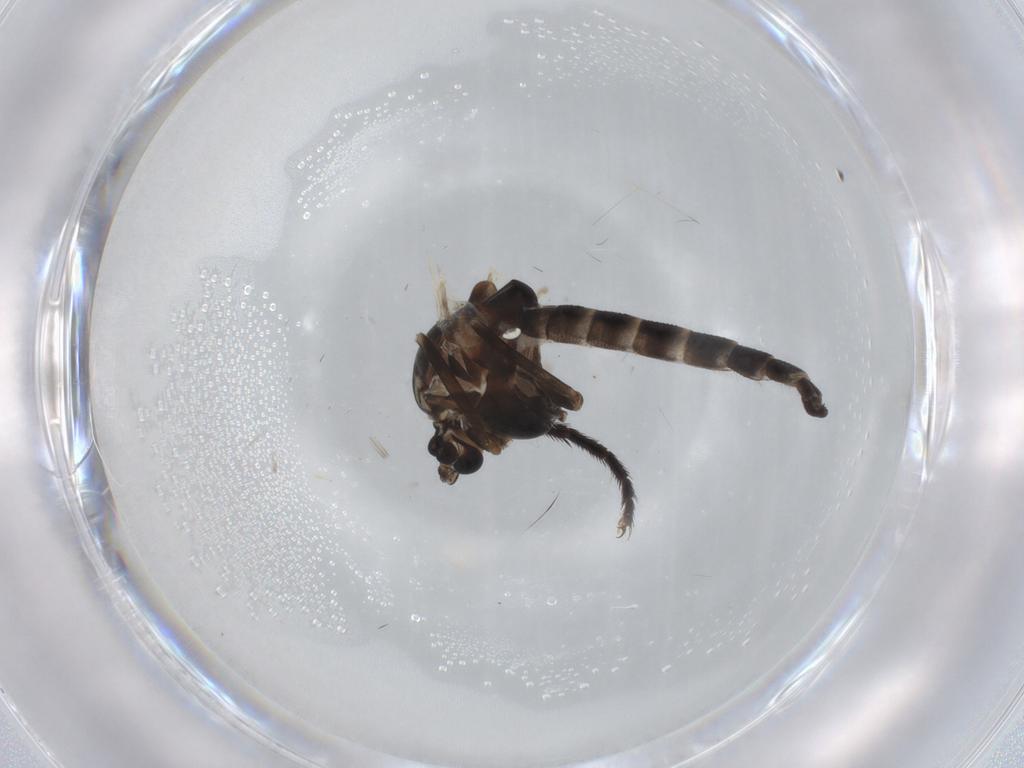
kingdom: Animalia
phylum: Arthropoda
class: Insecta
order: Diptera
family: Chironomidae
